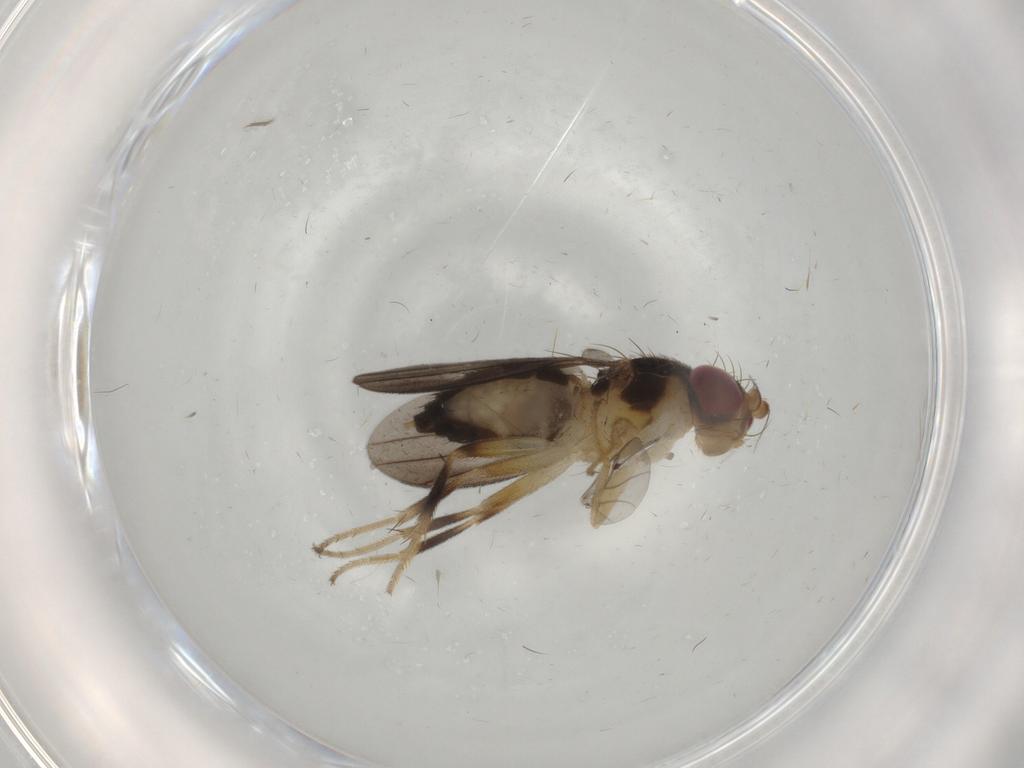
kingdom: Animalia
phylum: Arthropoda
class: Insecta
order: Diptera
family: Clusiidae
